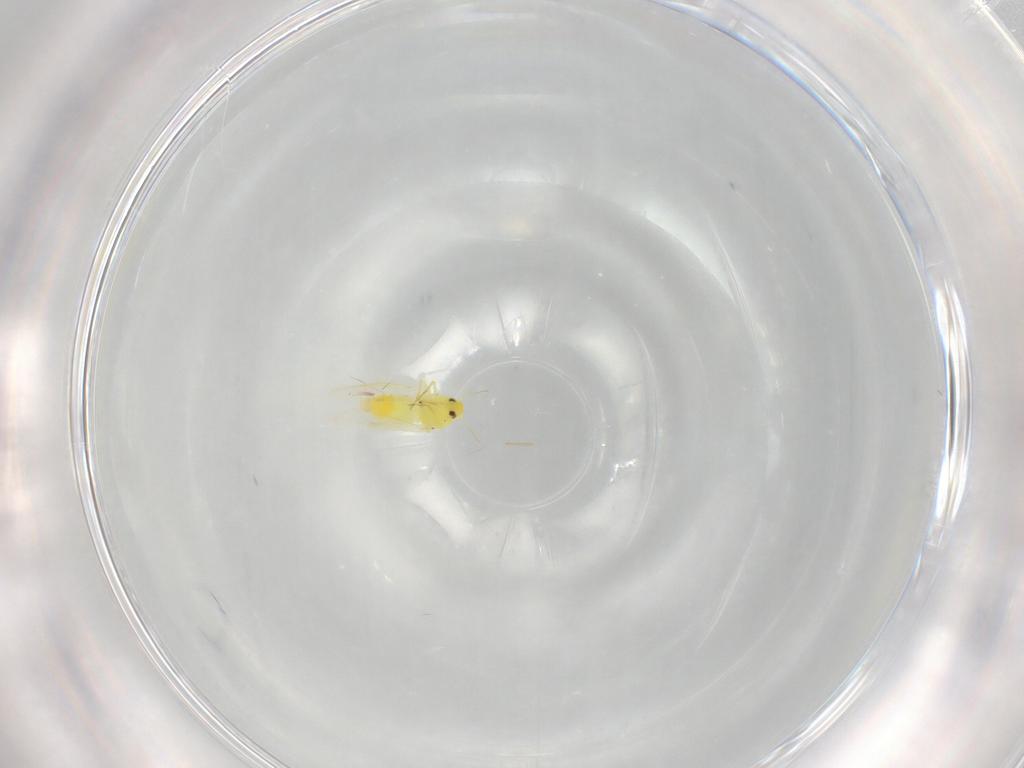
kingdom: Animalia
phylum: Arthropoda
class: Insecta
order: Hemiptera
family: Aleyrodidae
